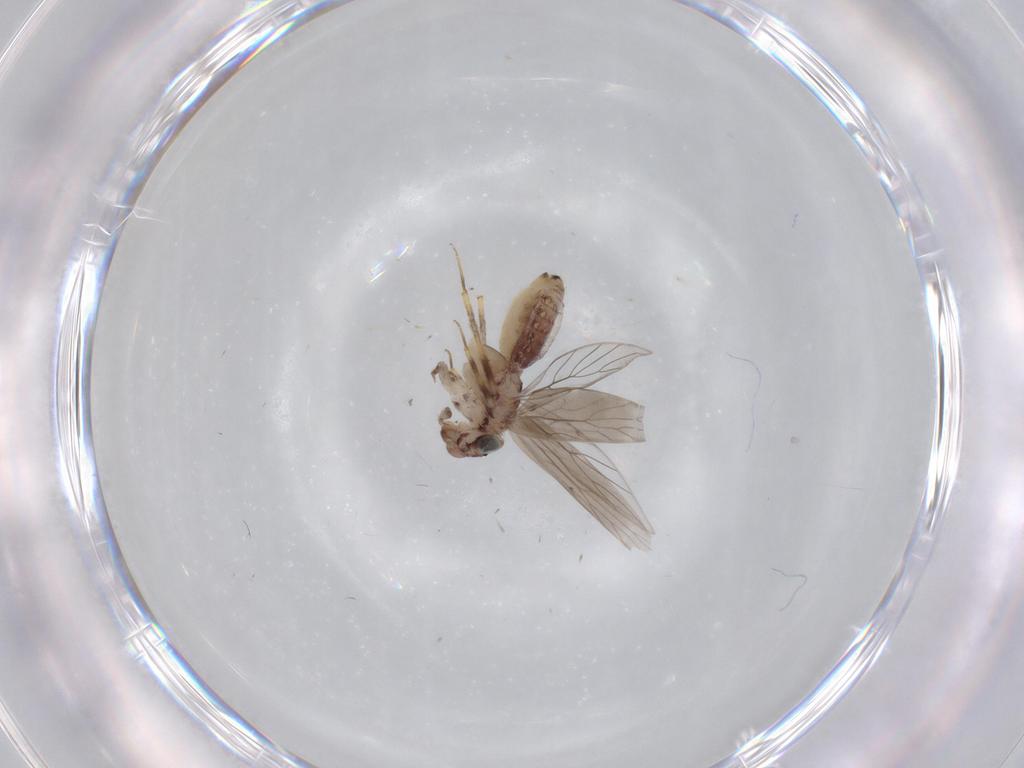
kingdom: Animalia
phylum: Arthropoda
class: Insecta
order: Psocodea
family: Lepidopsocidae
